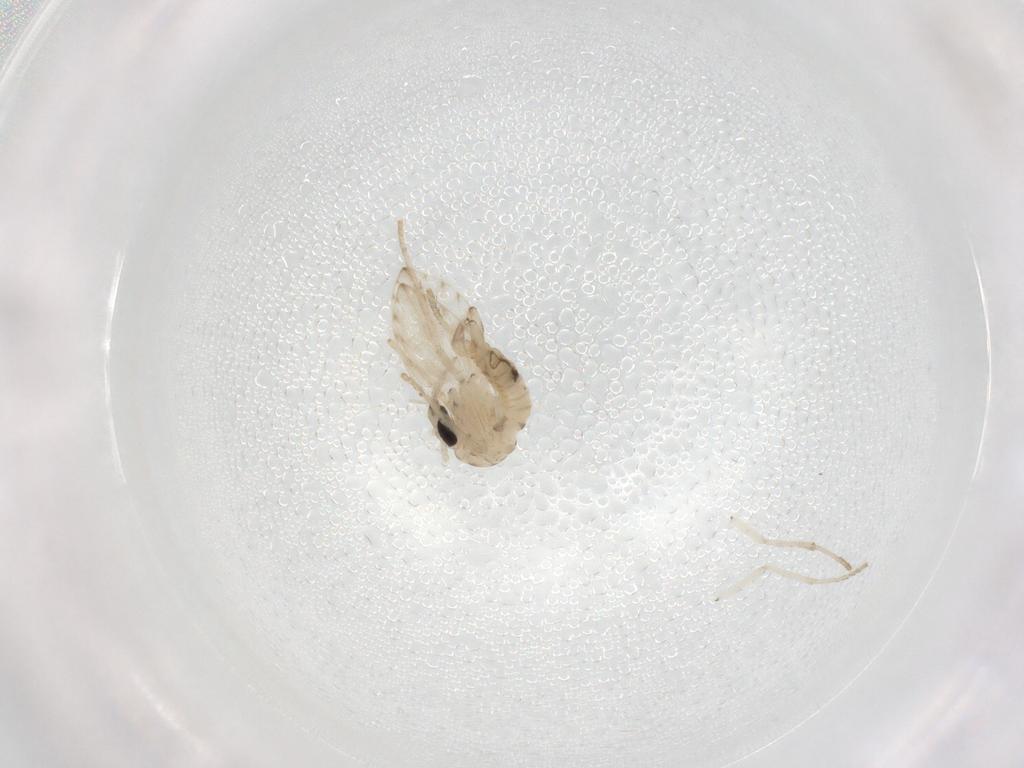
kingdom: Animalia
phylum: Arthropoda
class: Insecta
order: Diptera
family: Psychodidae
